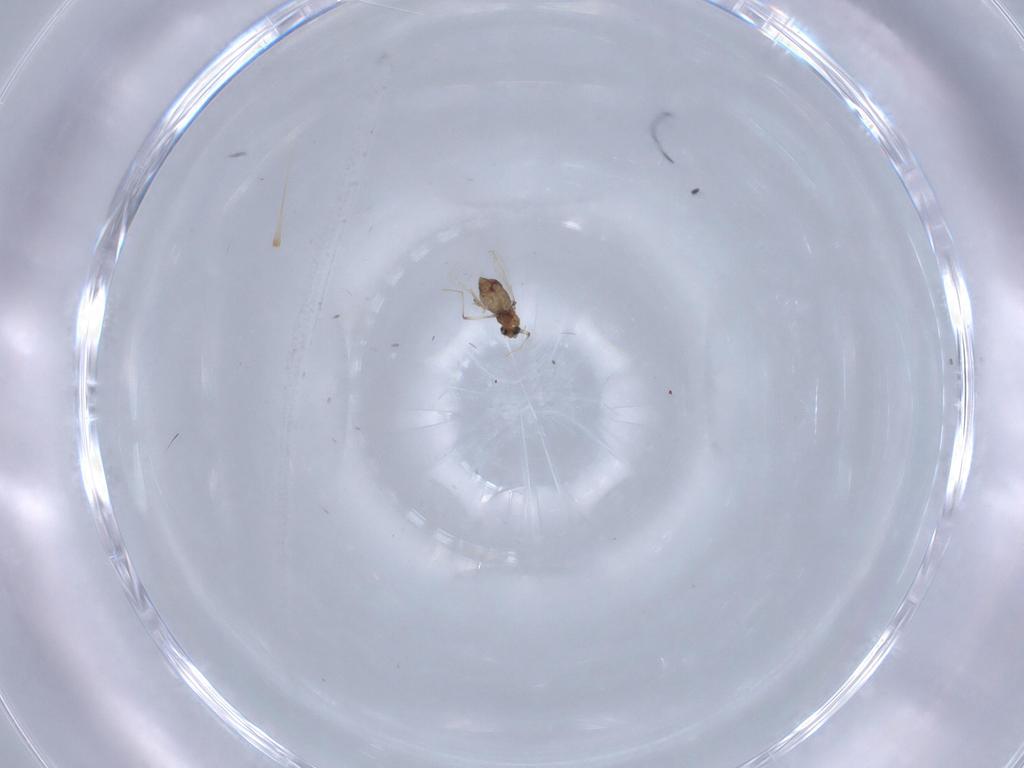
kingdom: Animalia
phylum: Arthropoda
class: Insecta
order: Diptera
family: Chironomidae
